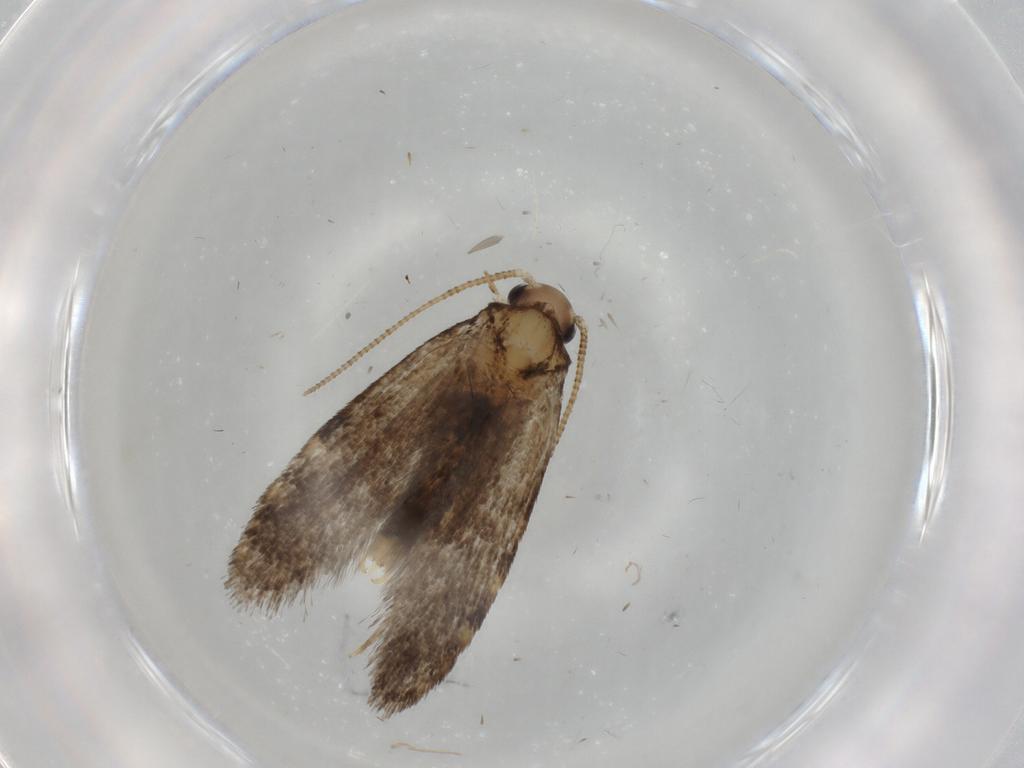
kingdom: Animalia
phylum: Arthropoda
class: Insecta
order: Lepidoptera
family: Tineidae
